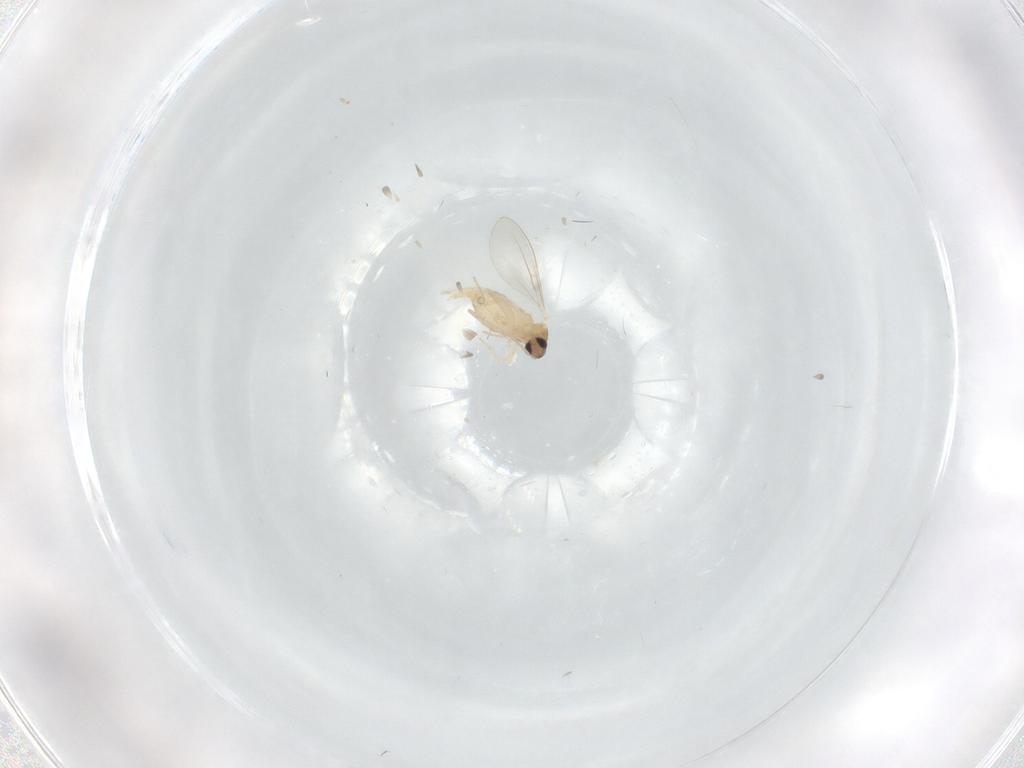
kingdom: Animalia
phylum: Arthropoda
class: Insecta
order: Diptera
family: Cecidomyiidae
